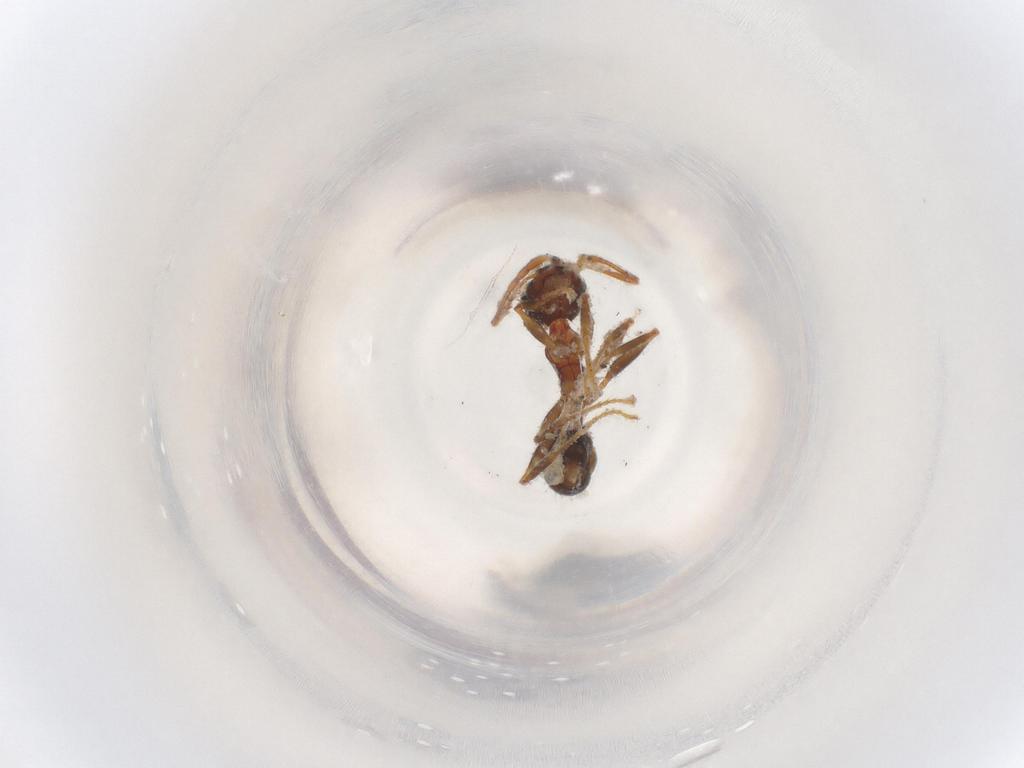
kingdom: Animalia
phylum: Arthropoda
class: Insecta
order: Hymenoptera
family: Formicidae
